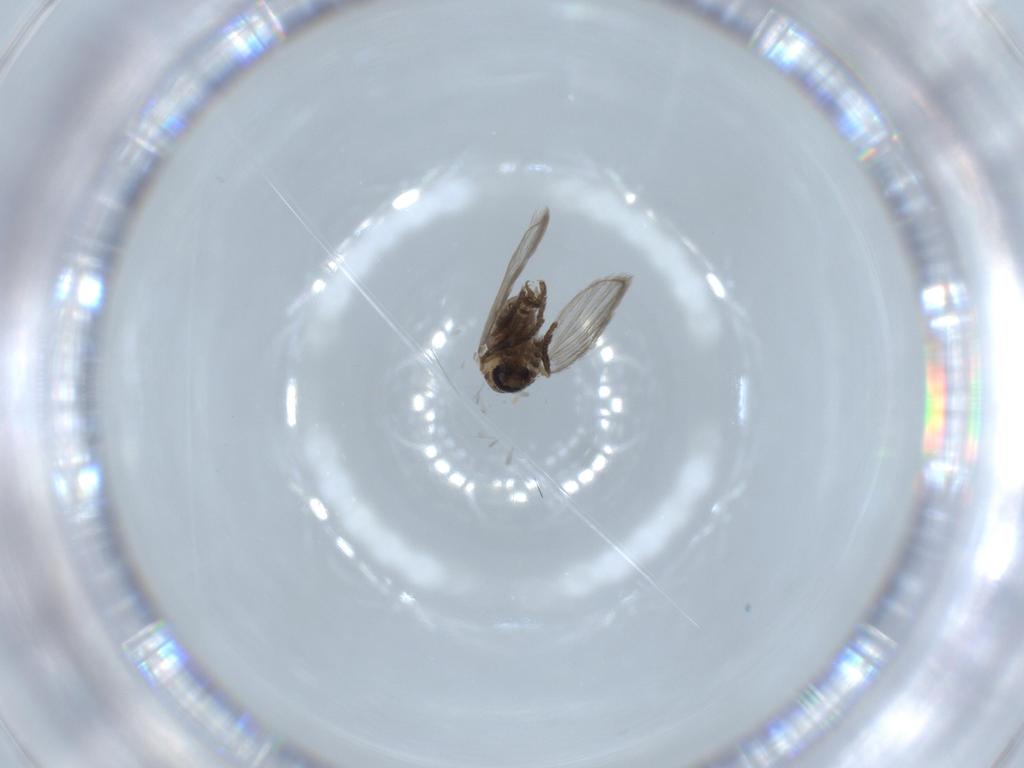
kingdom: Animalia
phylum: Arthropoda
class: Insecta
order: Diptera
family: Psychodidae
